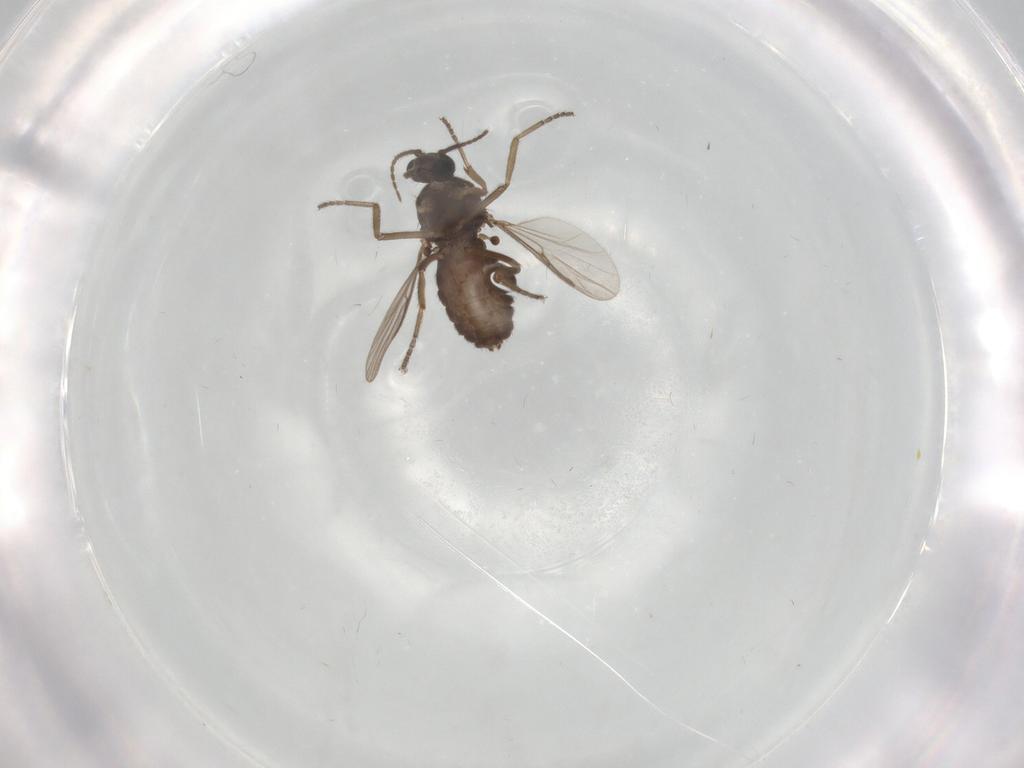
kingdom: Animalia
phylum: Arthropoda
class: Insecta
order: Diptera
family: Ceratopogonidae
